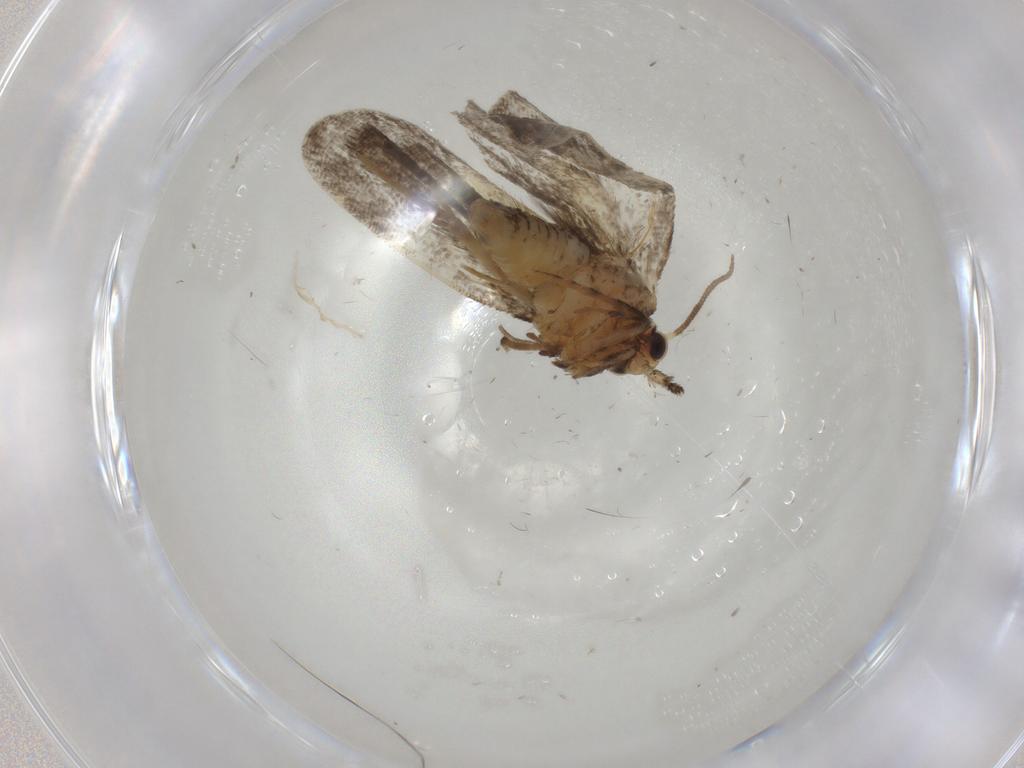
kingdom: Animalia
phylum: Arthropoda
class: Insecta
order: Lepidoptera
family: Psychidae
